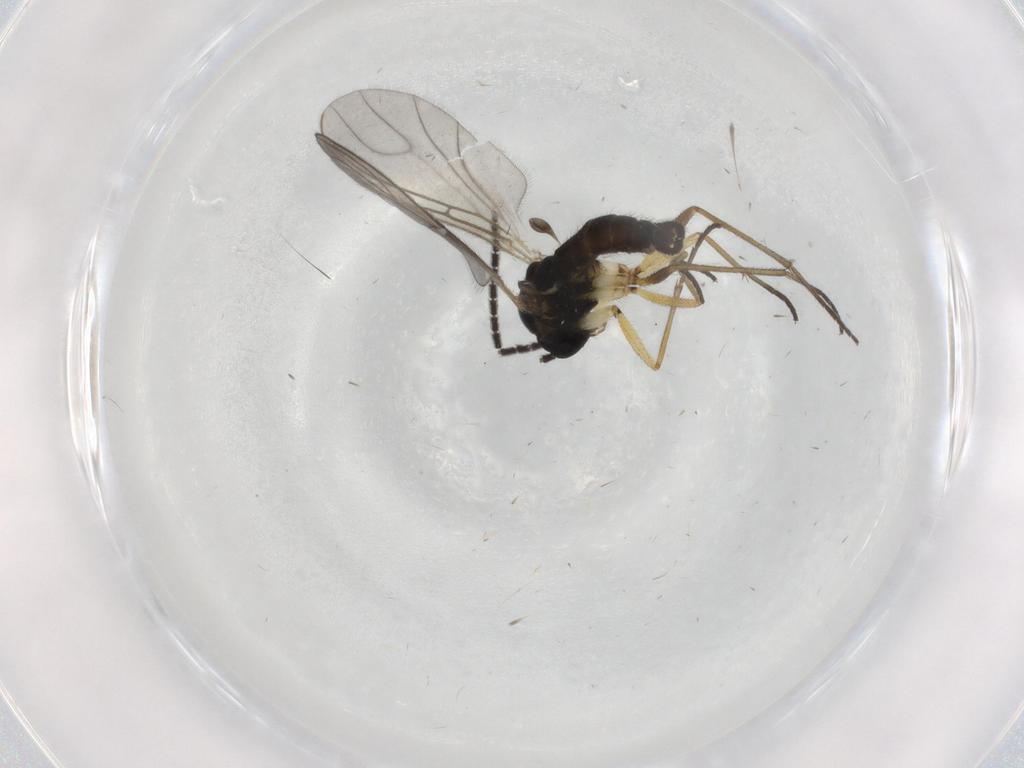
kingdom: Animalia
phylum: Arthropoda
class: Insecta
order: Diptera
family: Sciaridae
